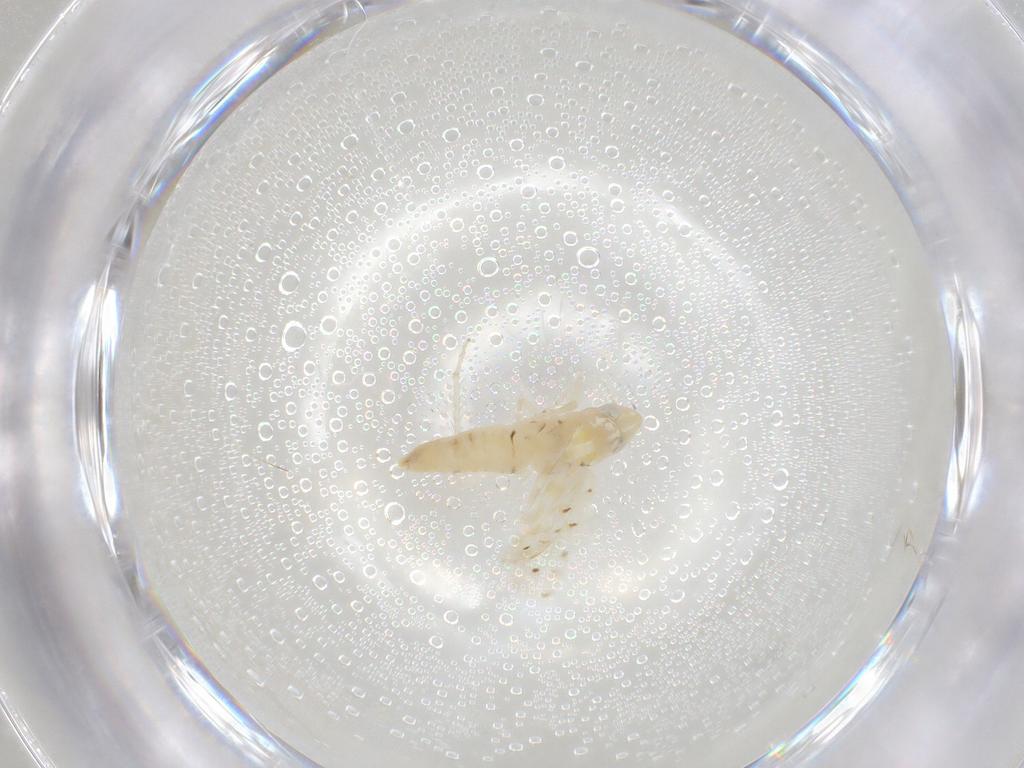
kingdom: Animalia
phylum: Arthropoda
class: Insecta
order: Hemiptera
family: Cicadellidae
